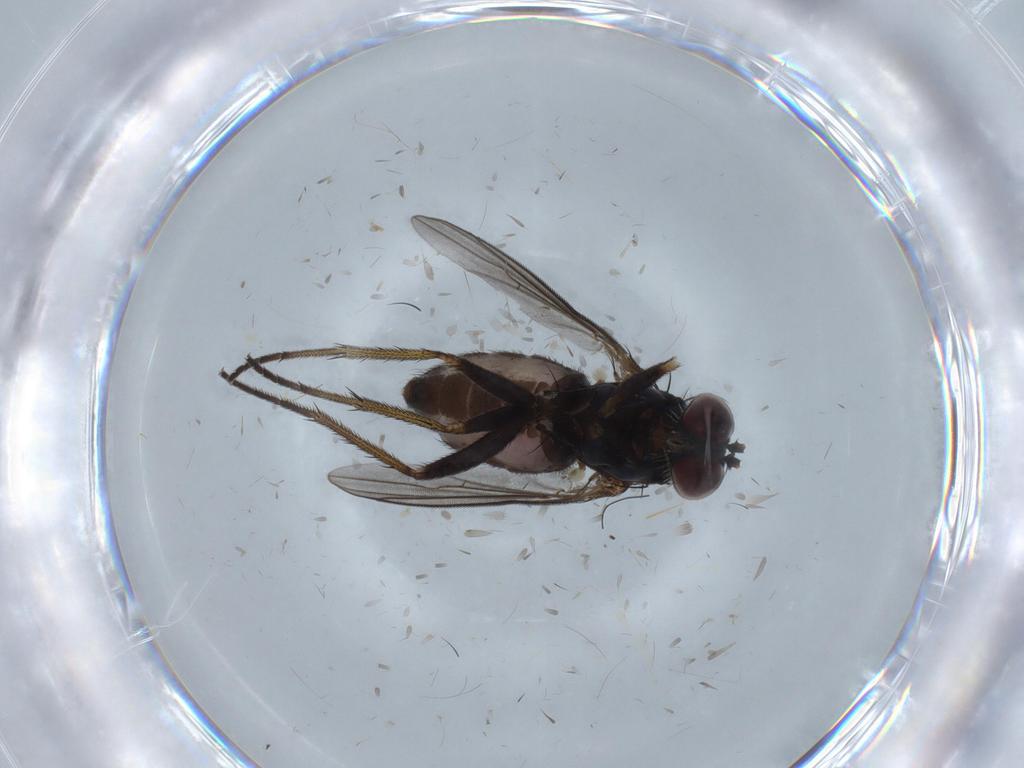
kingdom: Animalia
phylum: Arthropoda
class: Insecta
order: Diptera
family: Dolichopodidae
